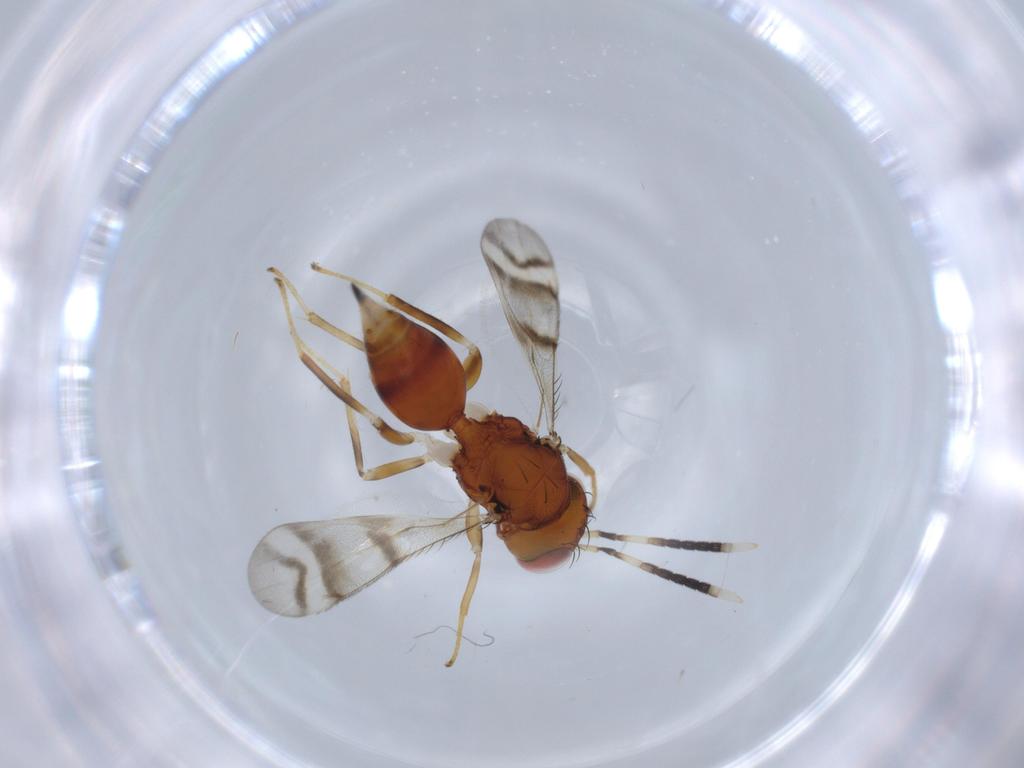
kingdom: Animalia
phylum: Arthropoda
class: Insecta
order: Hymenoptera
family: Diparidae
